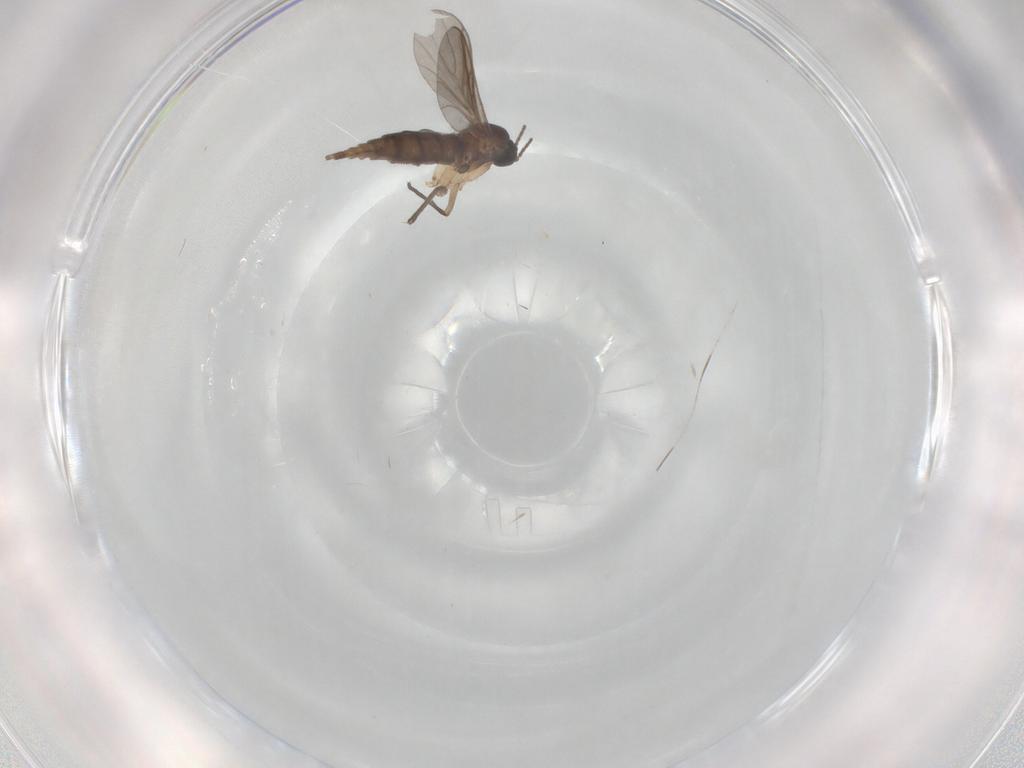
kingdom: Animalia
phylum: Arthropoda
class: Insecta
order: Diptera
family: Sciaridae
